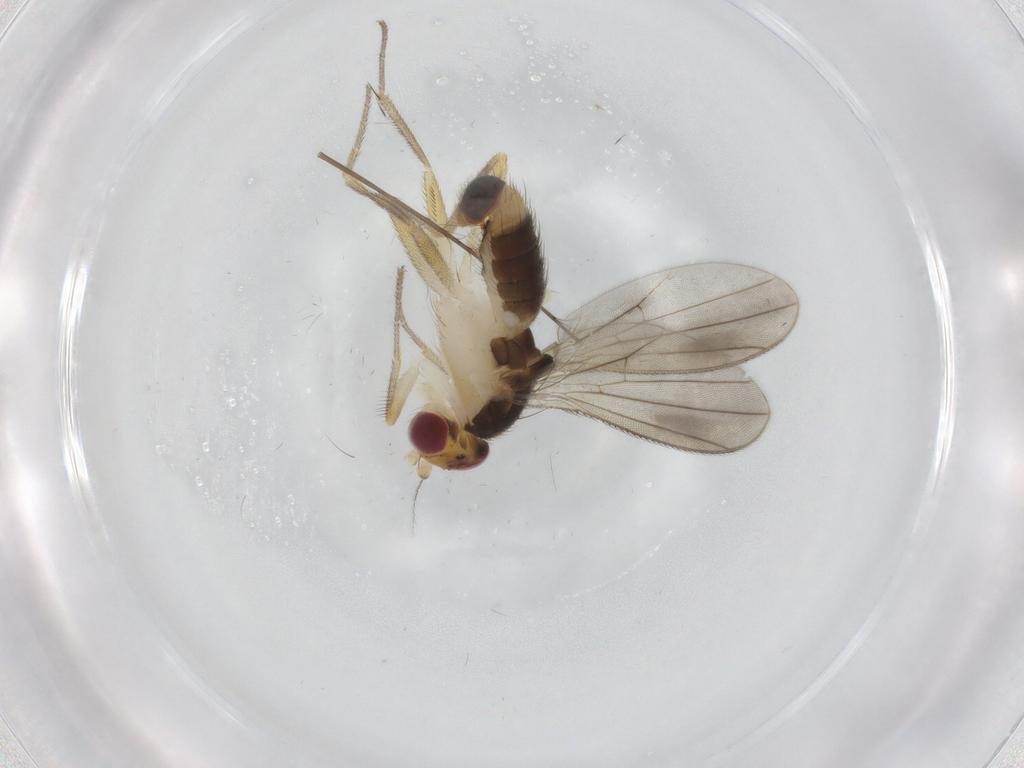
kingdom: Animalia
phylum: Arthropoda
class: Insecta
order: Diptera
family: Clusiidae
